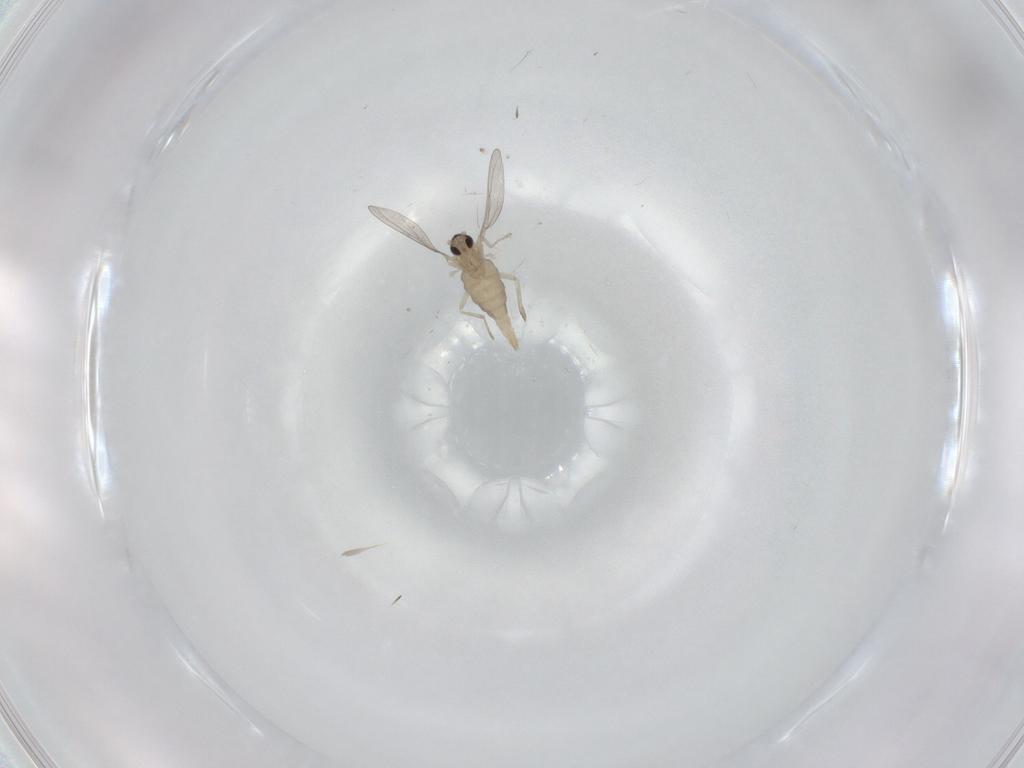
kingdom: Animalia
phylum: Arthropoda
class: Insecta
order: Diptera
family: Cecidomyiidae
